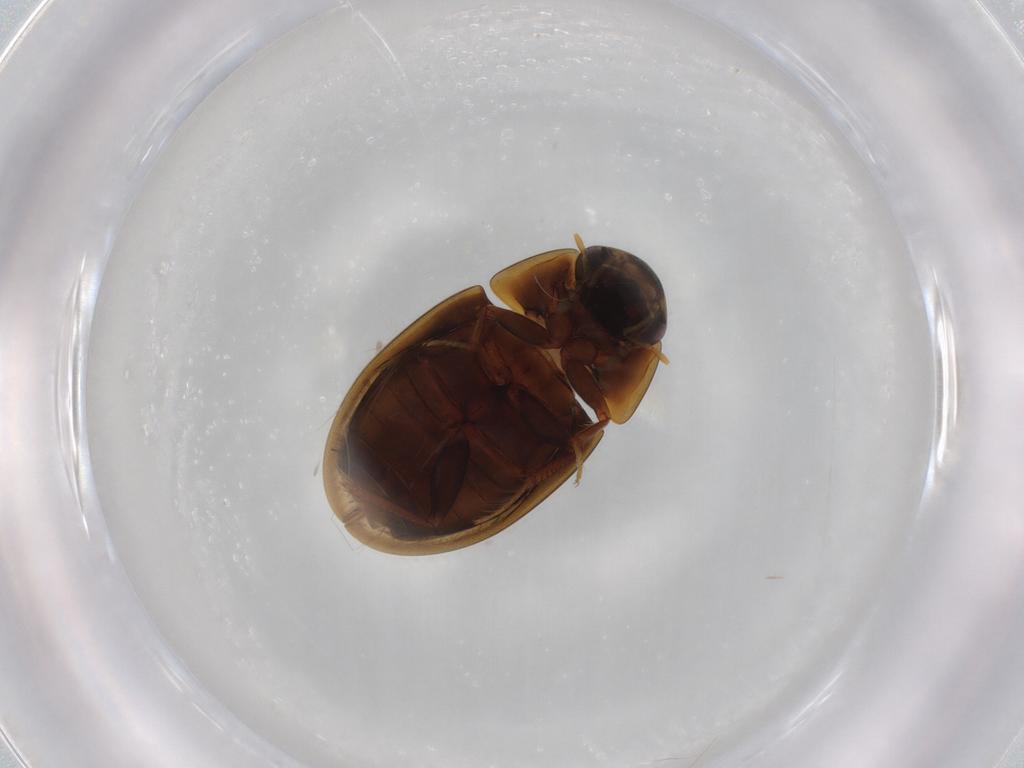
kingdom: Animalia
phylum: Arthropoda
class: Insecta
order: Coleoptera
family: Hydrophilidae
